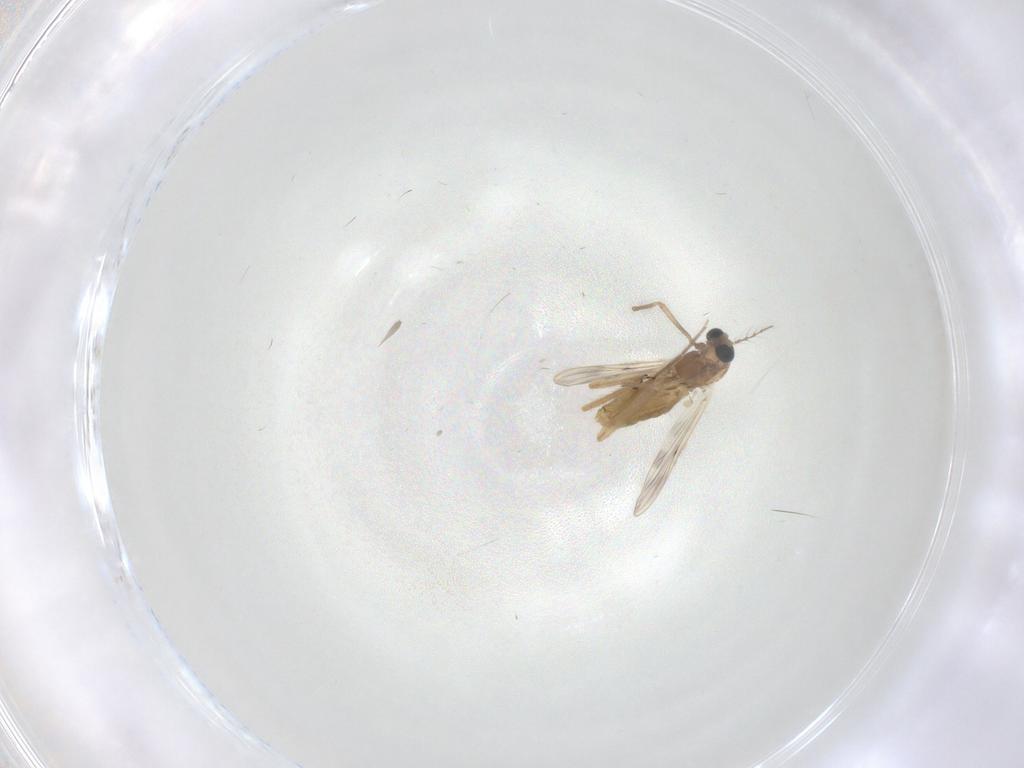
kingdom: Animalia
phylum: Arthropoda
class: Insecta
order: Diptera
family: Chironomidae
